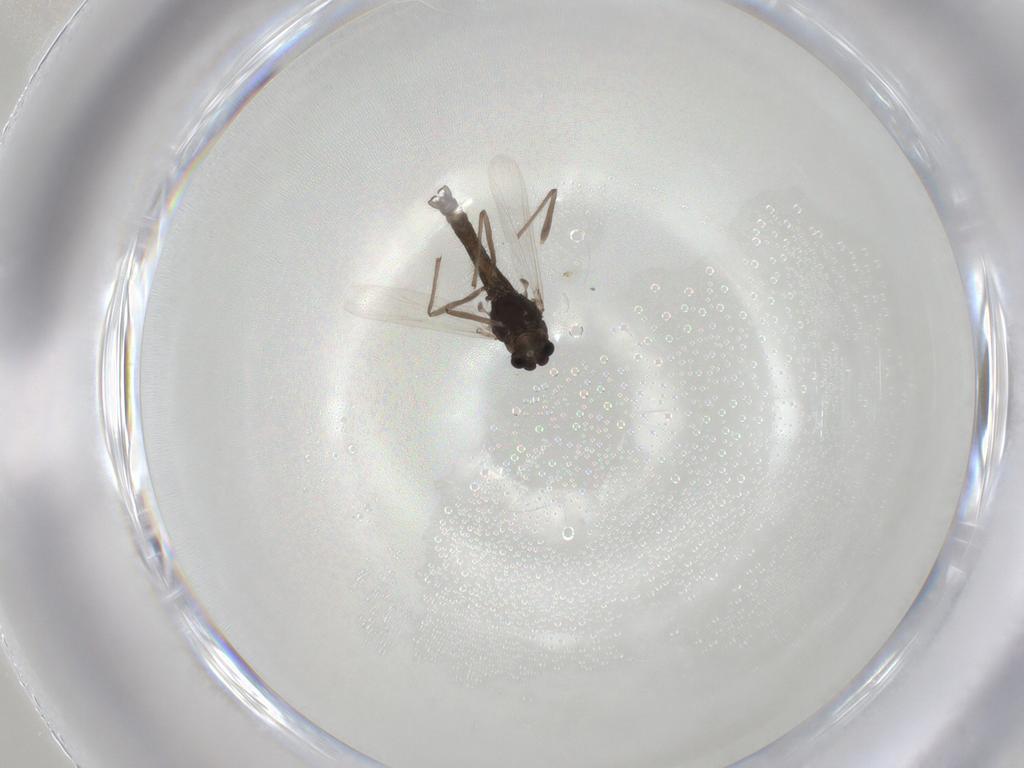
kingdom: Animalia
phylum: Arthropoda
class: Insecta
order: Diptera
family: Chironomidae
